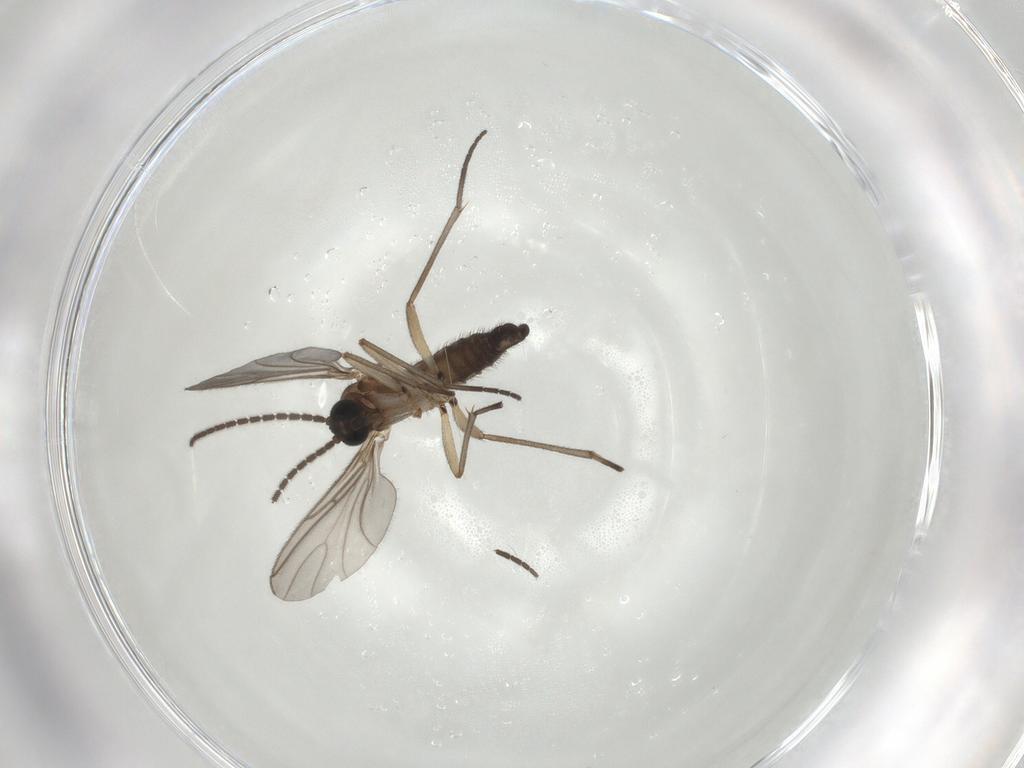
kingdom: Animalia
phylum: Arthropoda
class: Insecta
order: Diptera
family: Sciaridae
